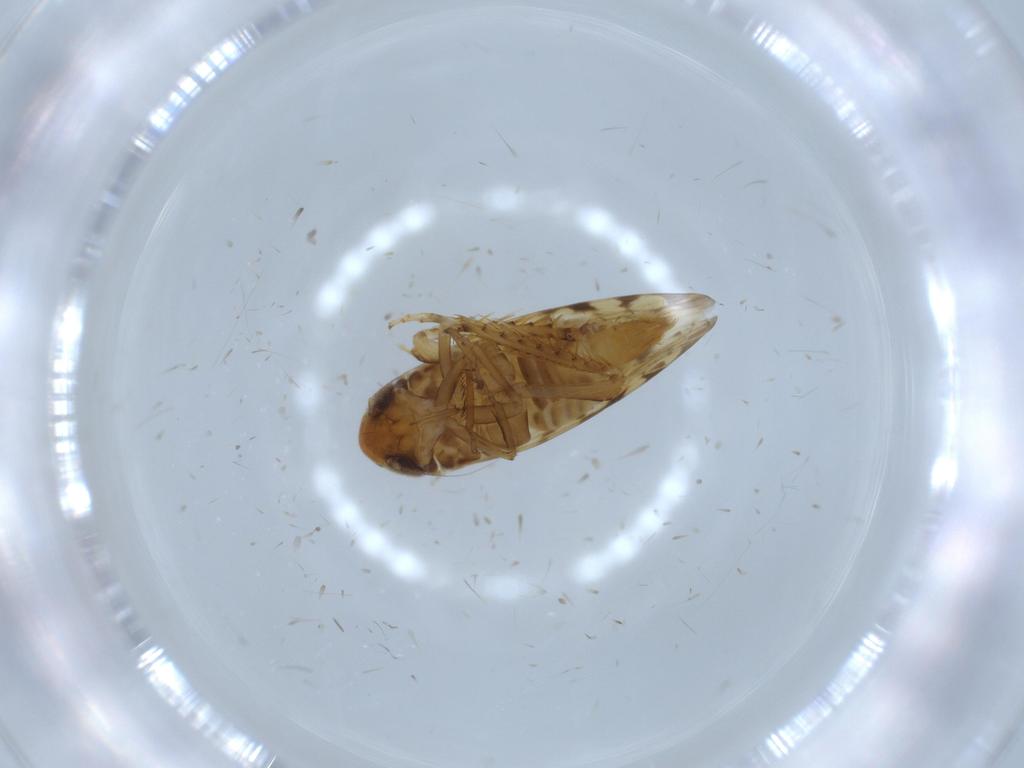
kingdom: Animalia
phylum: Arthropoda
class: Insecta
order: Hemiptera
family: Cicadellidae
